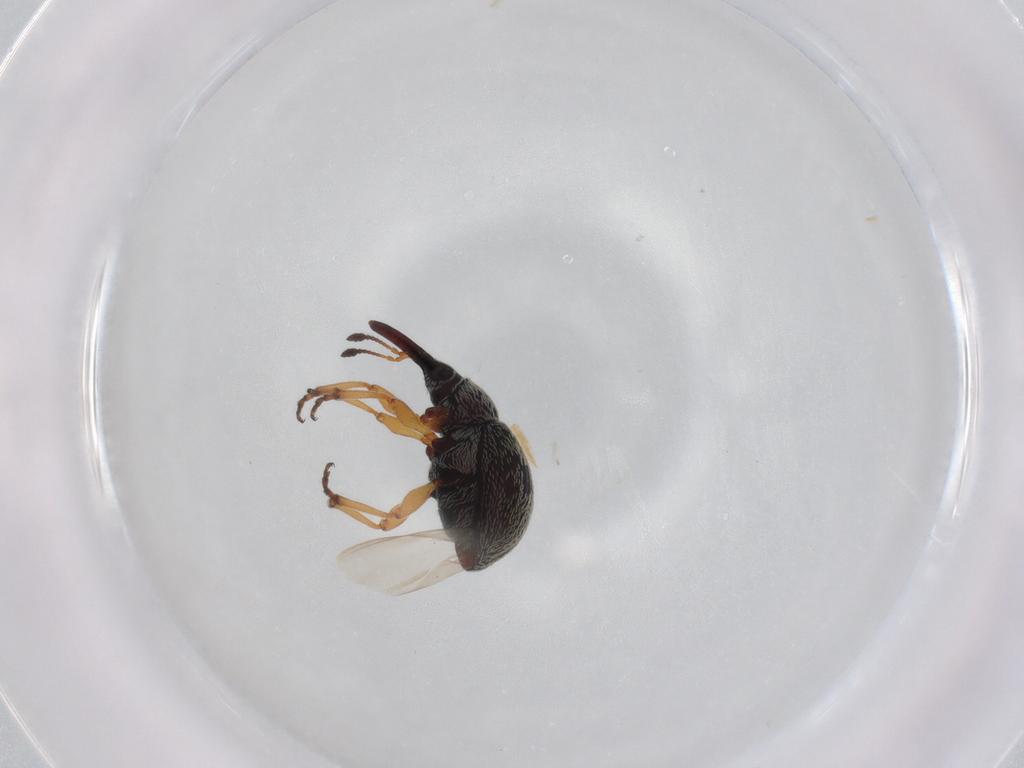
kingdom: Animalia
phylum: Arthropoda
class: Insecta
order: Coleoptera
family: Brentidae
